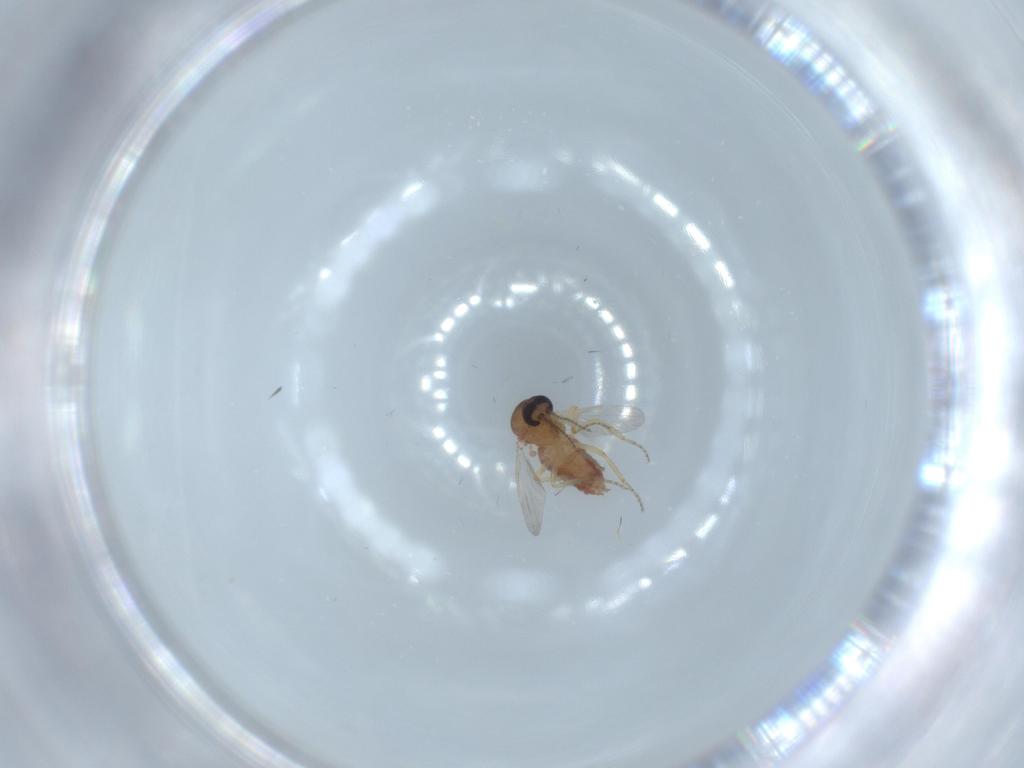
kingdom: Animalia
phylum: Arthropoda
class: Insecta
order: Diptera
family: Ceratopogonidae
